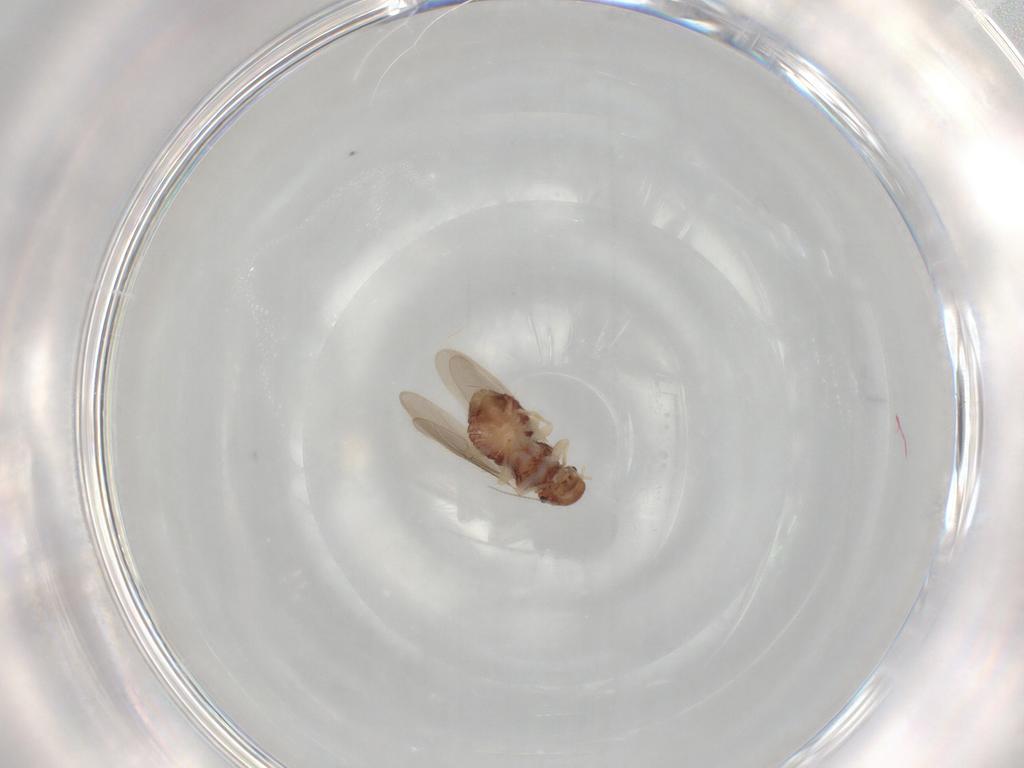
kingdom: Animalia
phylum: Arthropoda
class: Insecta
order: Psocodea
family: Archipsocidae
